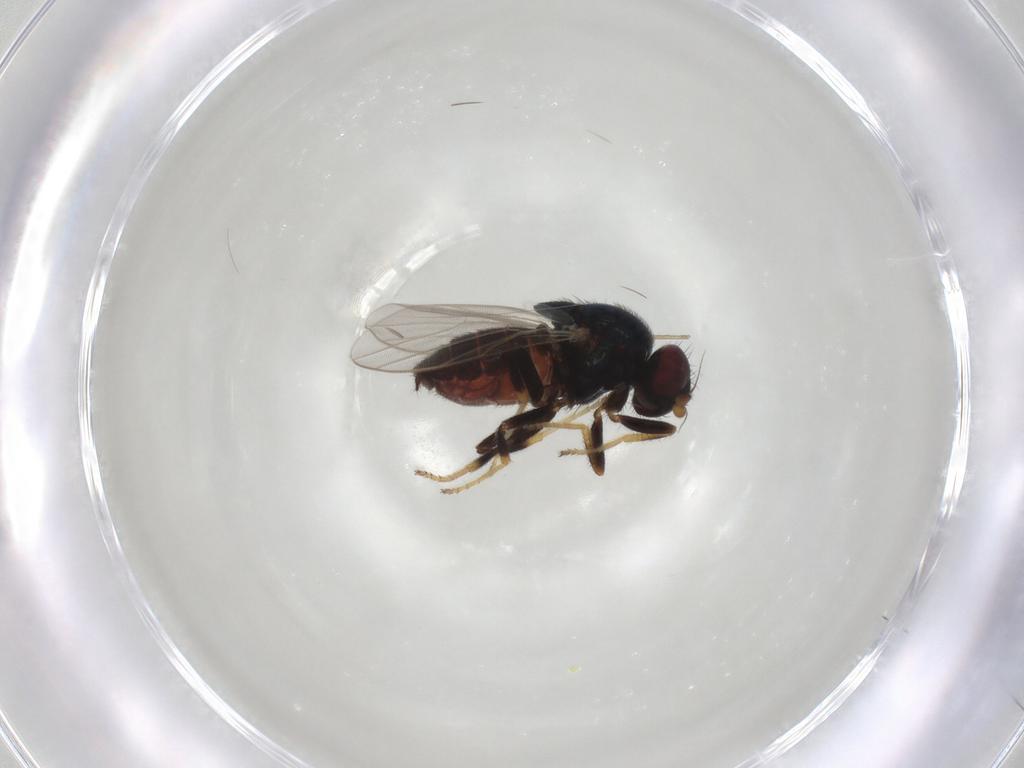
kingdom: Animalia
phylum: Arthropoda
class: Insecta
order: Diptera
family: Chloropidae
